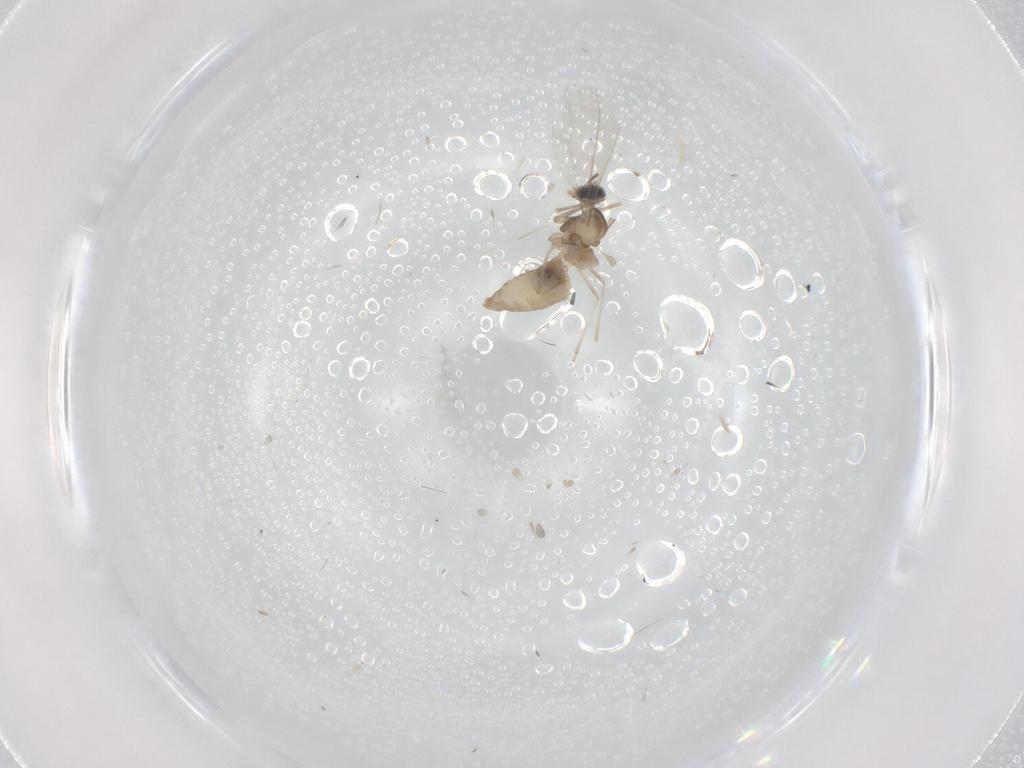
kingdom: Animalia
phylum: Arthropoda
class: Insecta
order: Diptera
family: Cecidomyiidae
